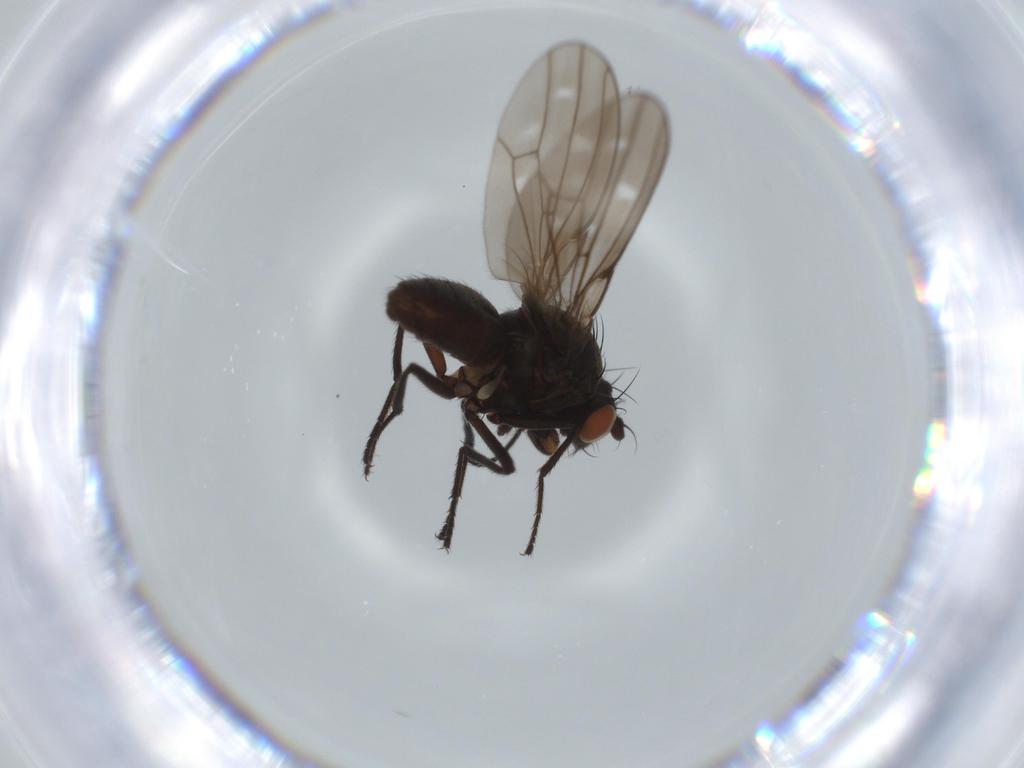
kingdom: Animalia
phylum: Arthropoda
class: Insecta
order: Diptera
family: Ephydridae
